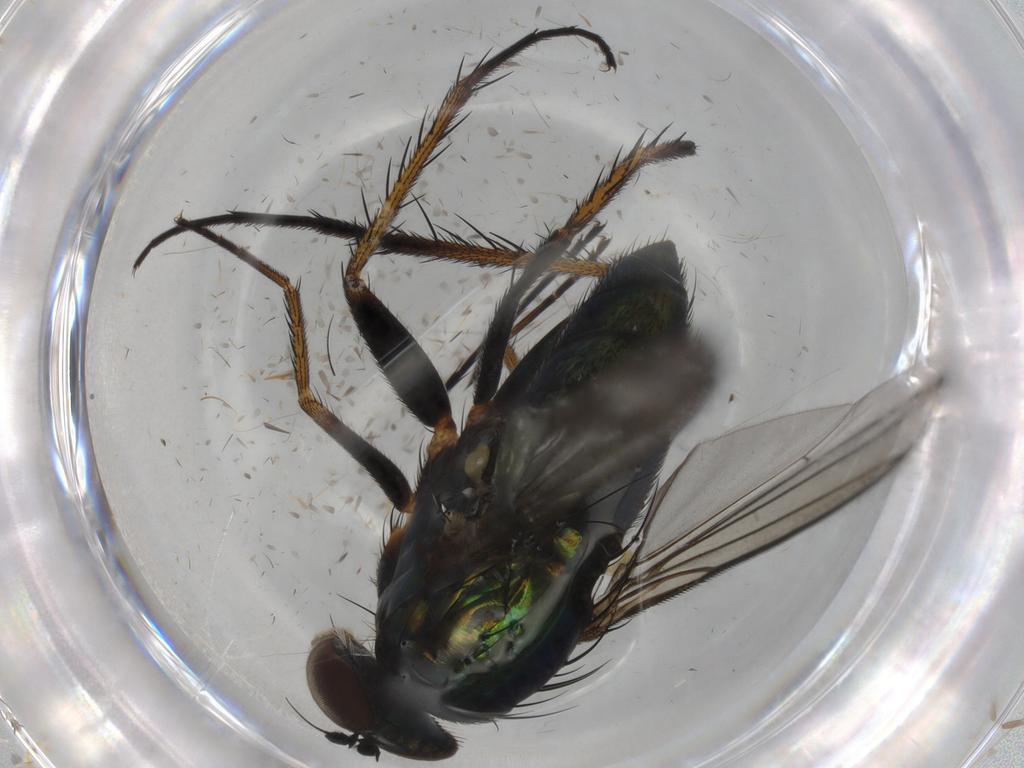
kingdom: Animalia
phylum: Arthropoda
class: Insecta
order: Diptera
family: Dolichopodidae
